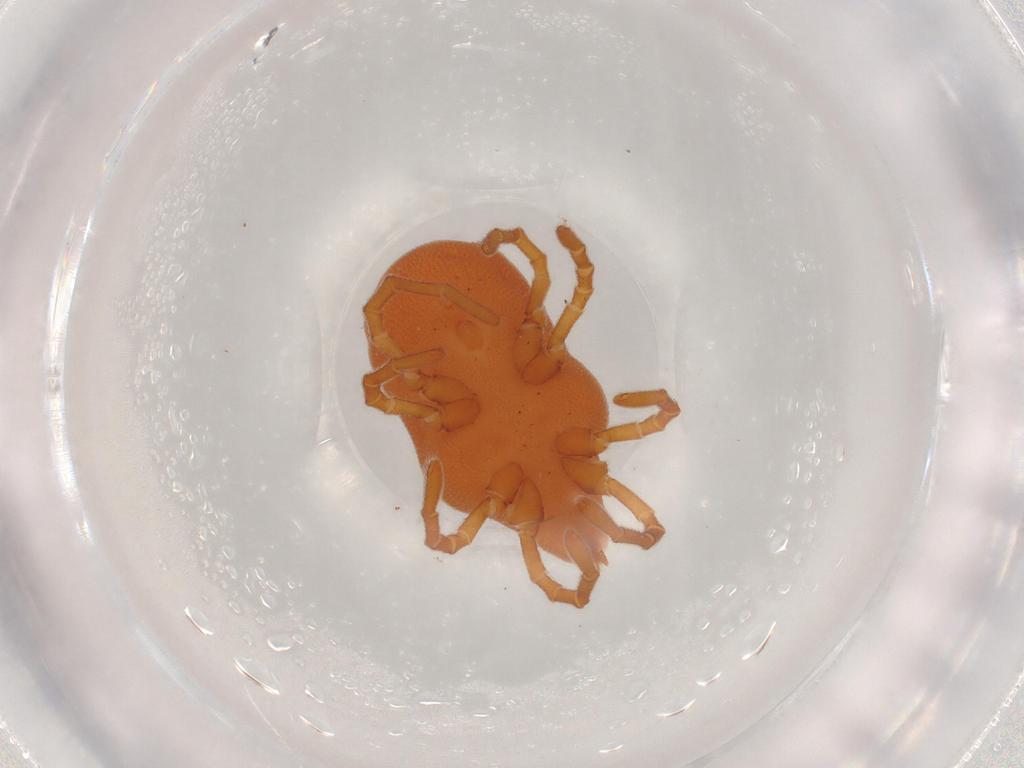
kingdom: Animalia
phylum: Arthropoda
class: Arachnida
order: Trombidiformes
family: Calyptostomatidae
